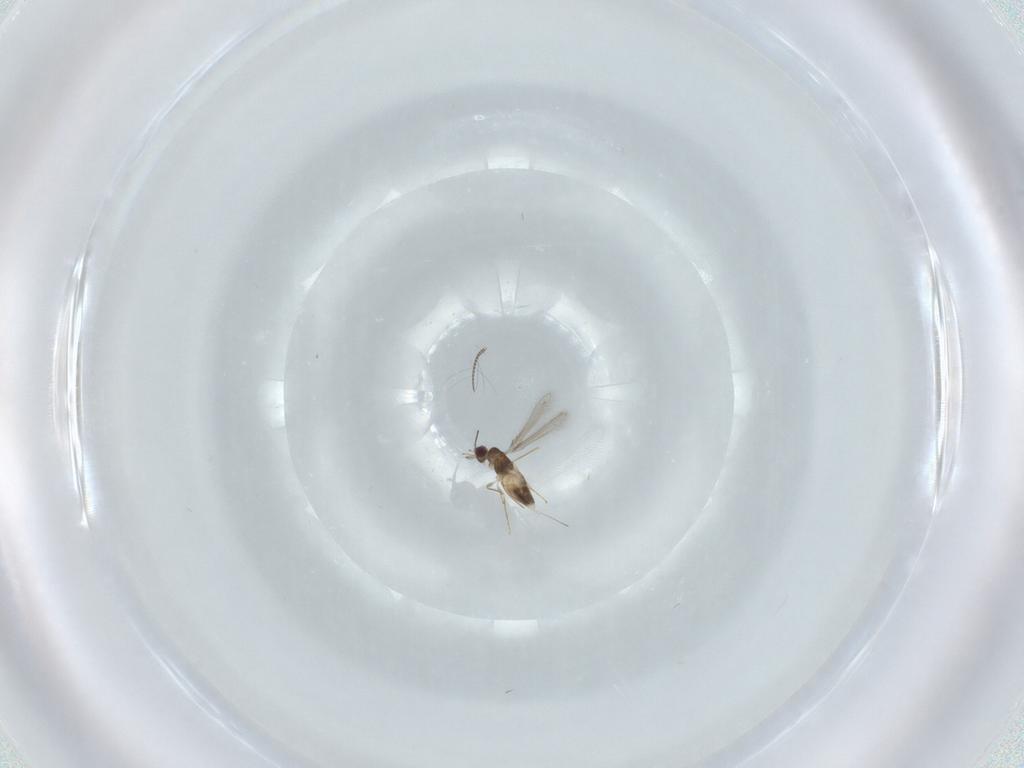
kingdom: Animalia
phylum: Arthropoda
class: Insecta
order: Hymenoptera
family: Mymaridae
